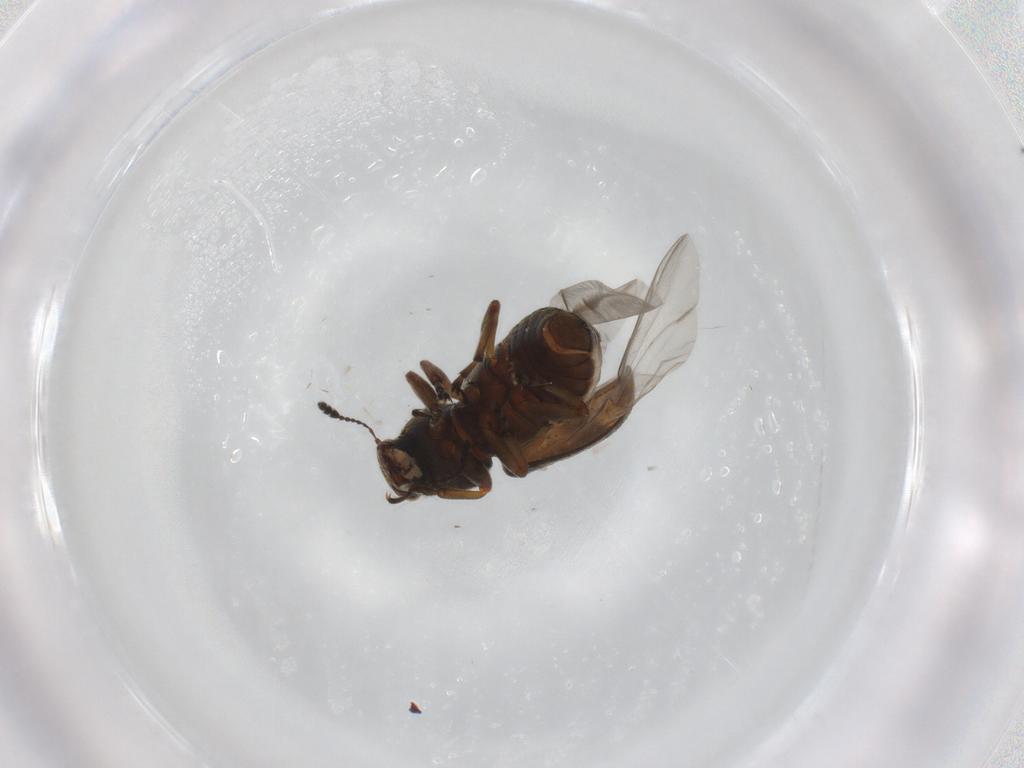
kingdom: Animalia
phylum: Arthropoda
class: Insecta
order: Coleoptera
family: Anthribidae
